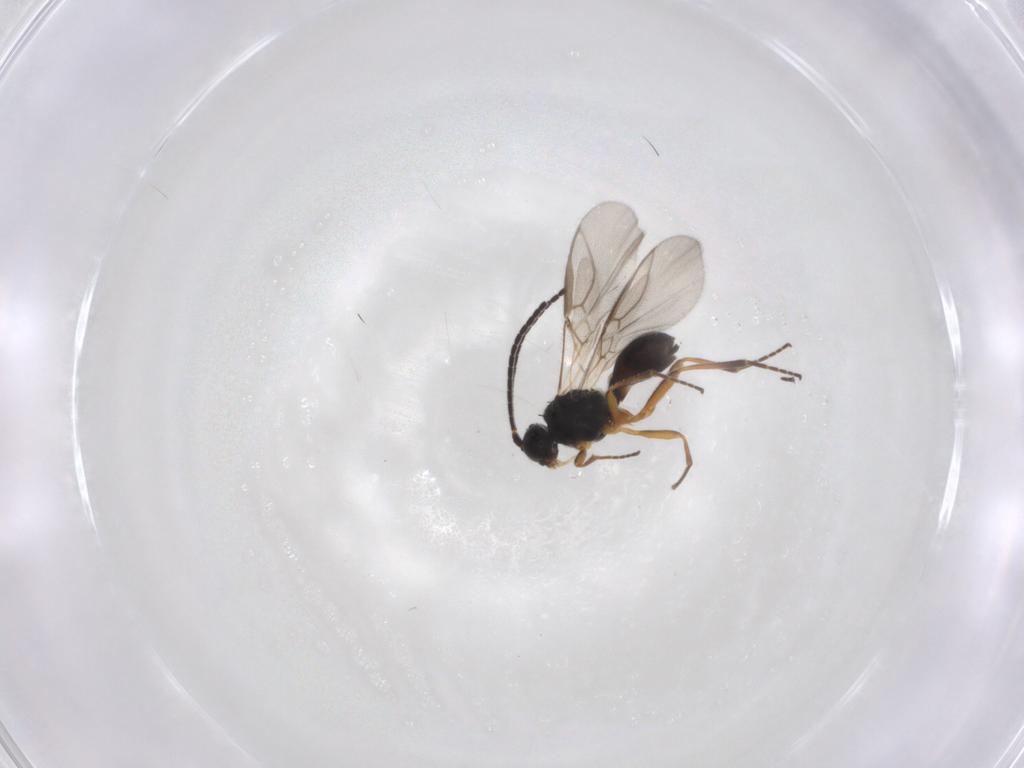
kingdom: Animalia
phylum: Arthropoda
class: Insecta
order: Hymenoptera
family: Braconidae
